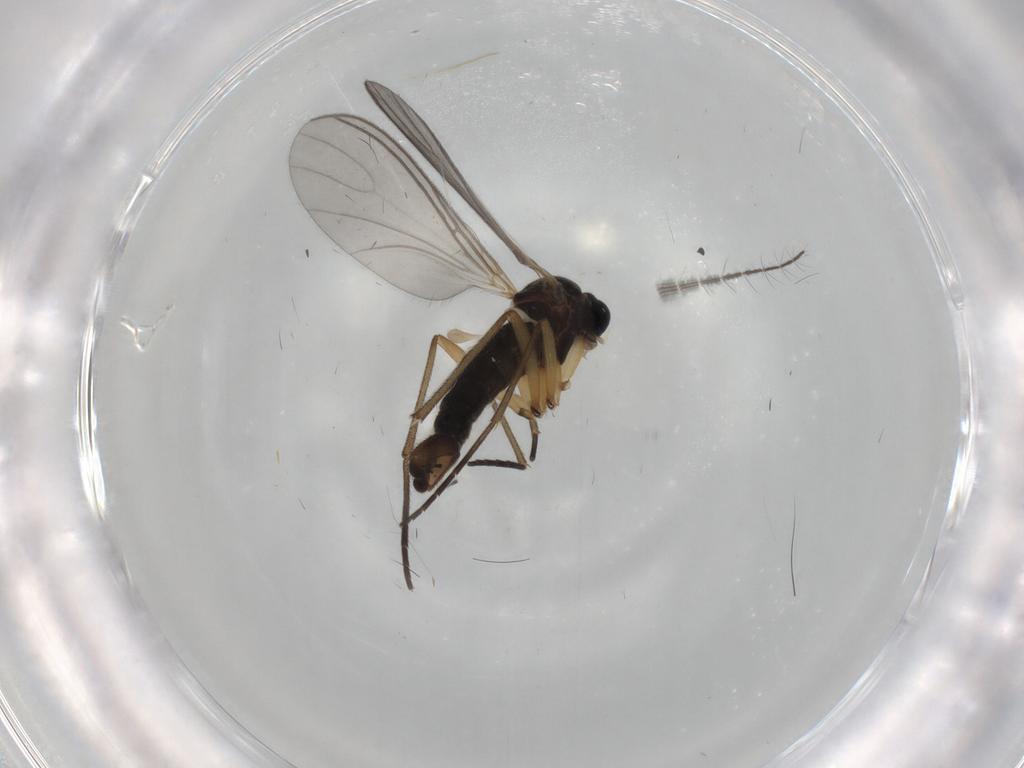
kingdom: Animalia
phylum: Arthropoda
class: Insecta
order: Diptera
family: Sciaridae
